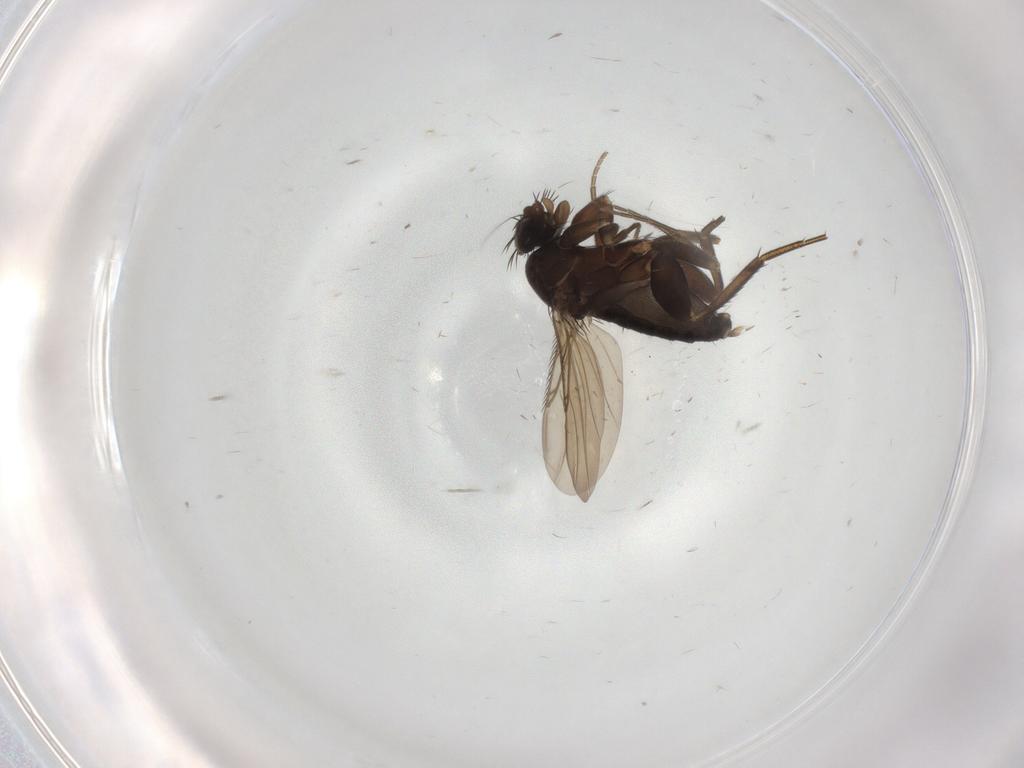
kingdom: Animalia
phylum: Arthropoda
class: Insecta
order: Diptera
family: Phoridae
